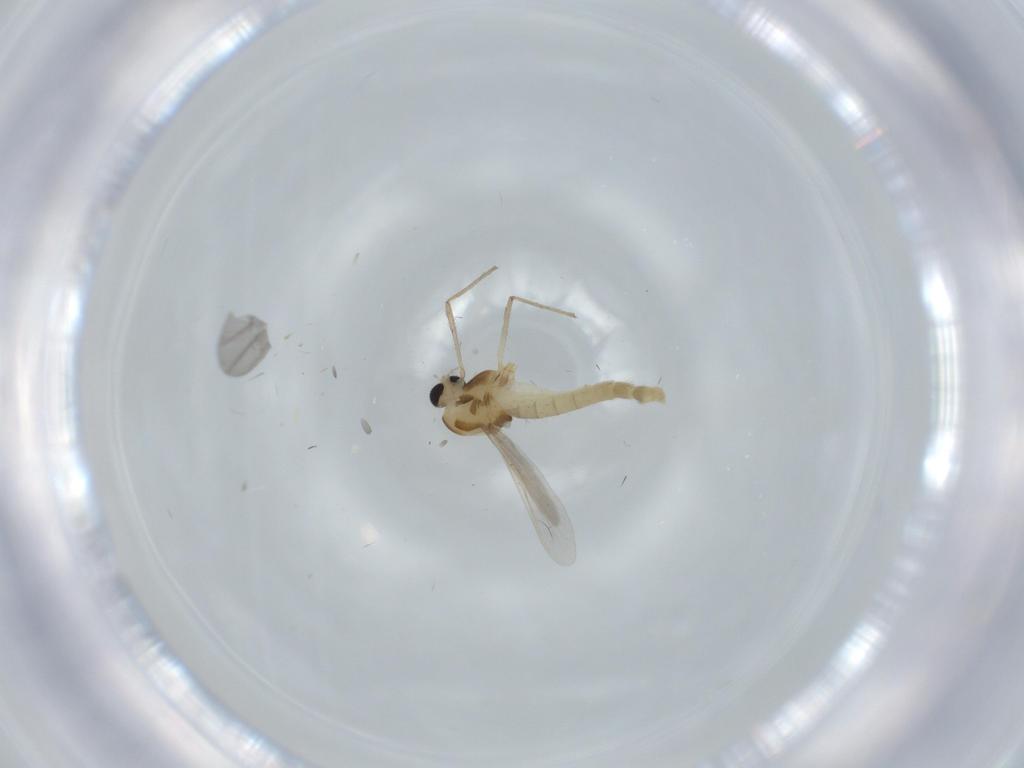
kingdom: Animalia
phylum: Arthropoda
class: Insecta
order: Diptera
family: Chironomidae
